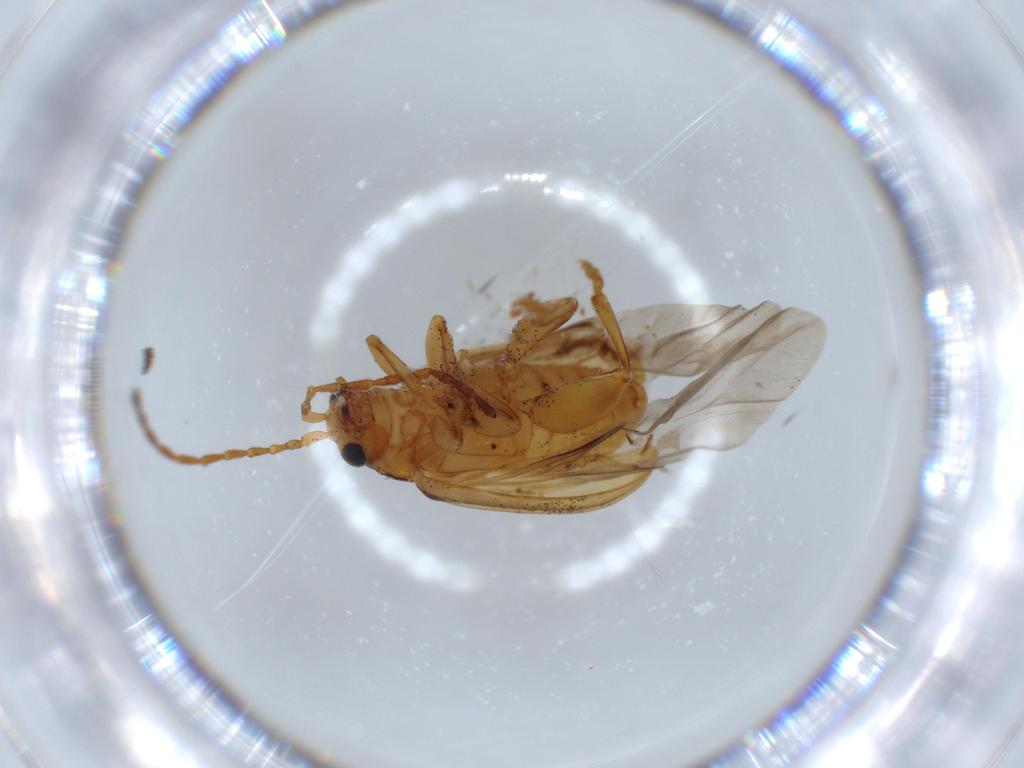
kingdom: Animalia
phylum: Arthropoda
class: Insecta
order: Coleoptera
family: Chrysomelidae
